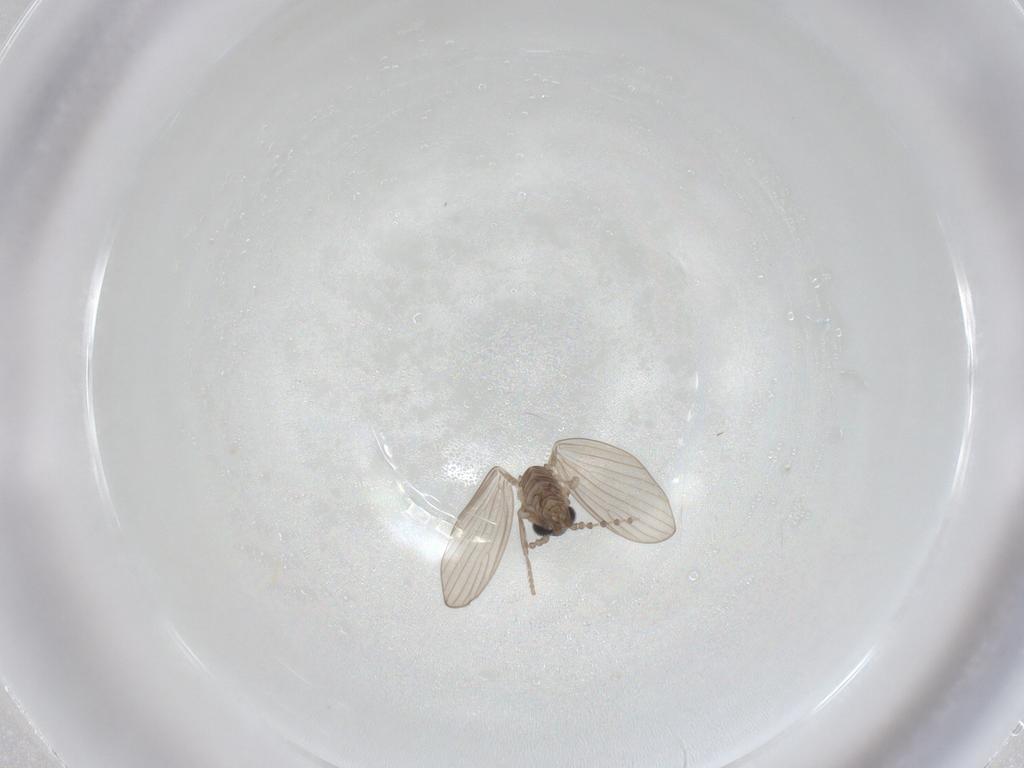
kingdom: Animalia
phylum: Arthropoda
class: Insecta
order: Diptera
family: Psychodidae
